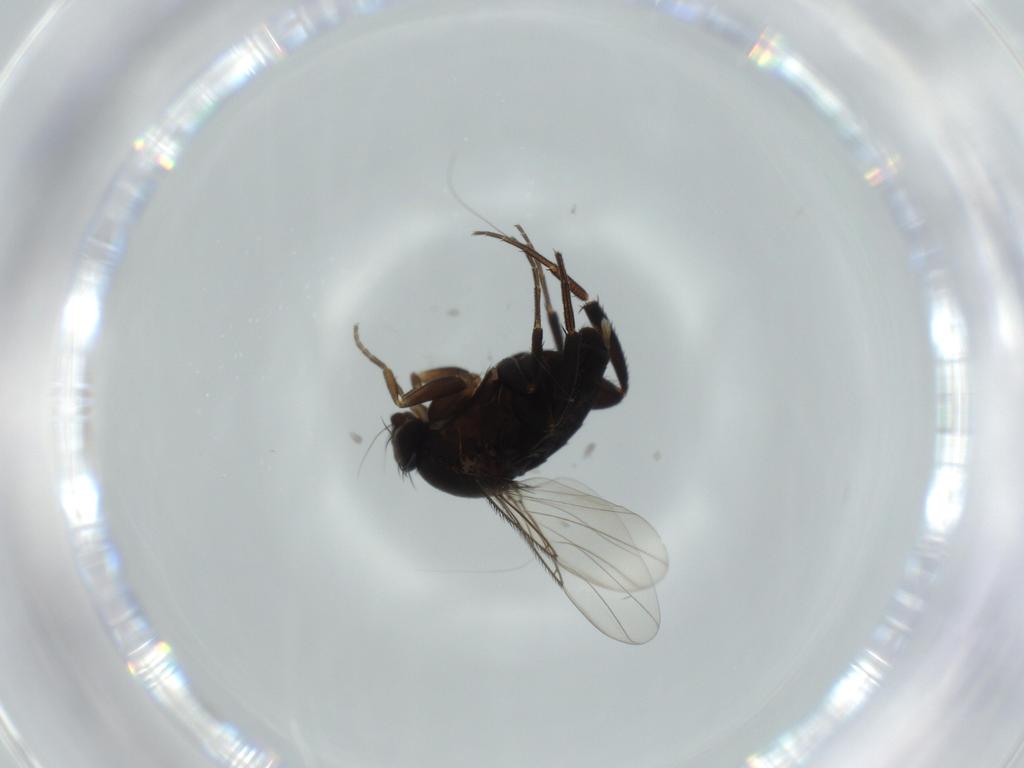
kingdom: Animalia
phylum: Arthropoda
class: Insecta
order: Diptera
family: Phoridae
